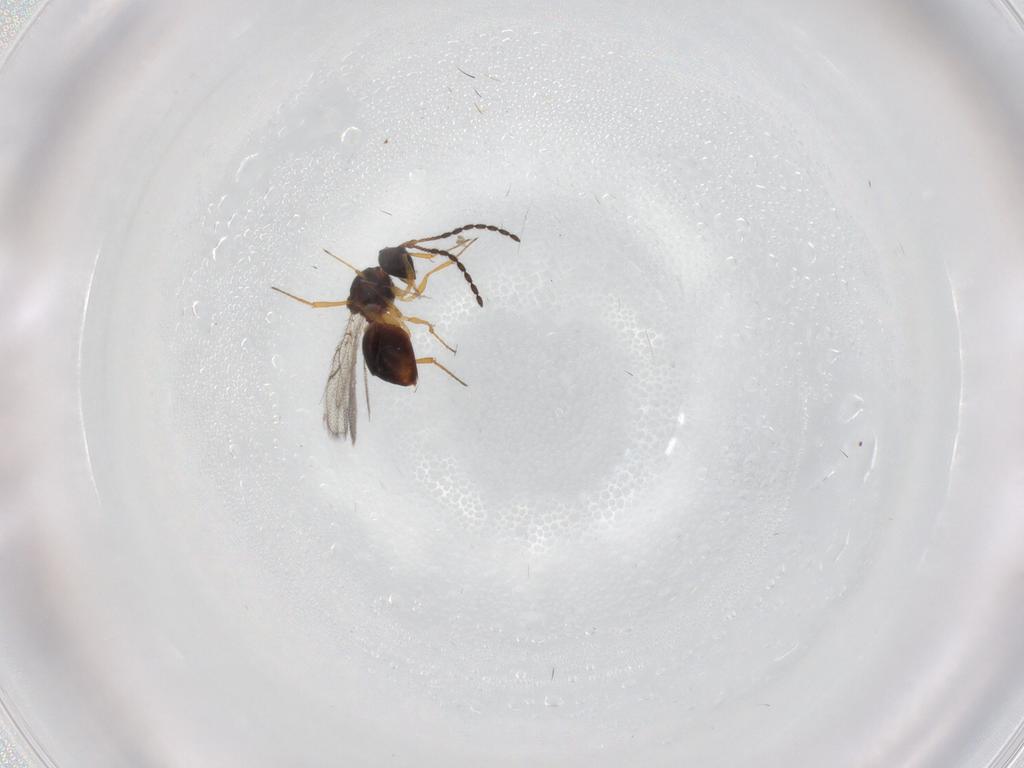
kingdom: Animalia
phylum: Arthropoda
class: Insecta
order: Hymenoptera
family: Figitidae
